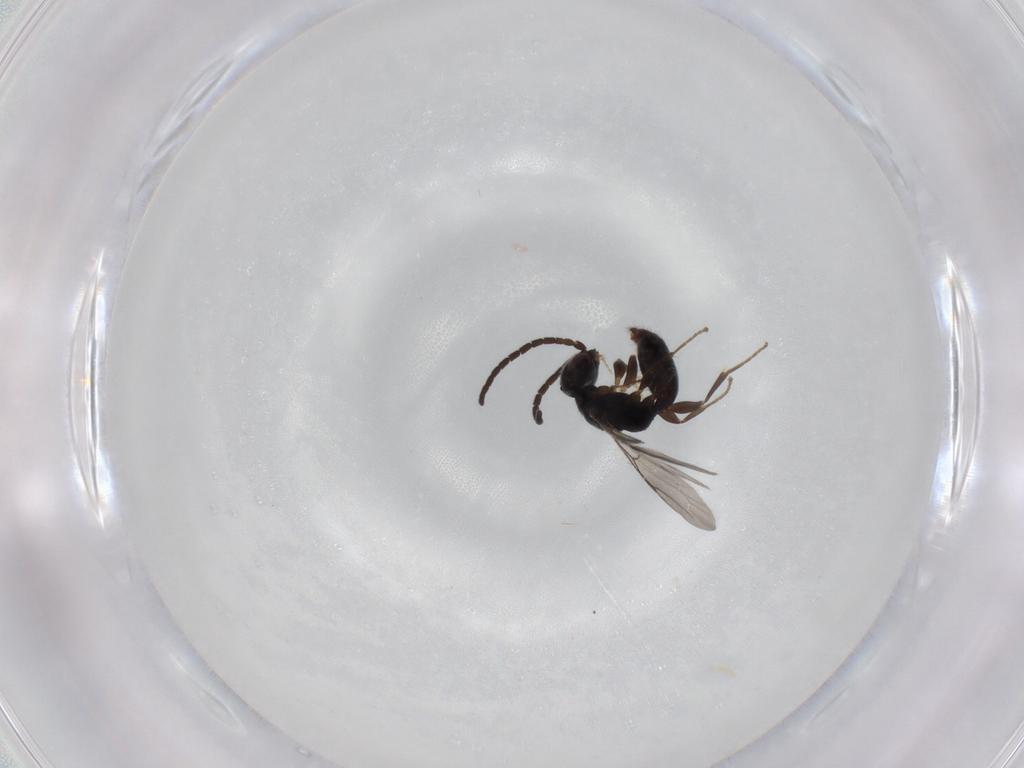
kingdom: Animalia
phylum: Arthropoda
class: Insecta
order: Hymenoptera
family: Bethylidae
